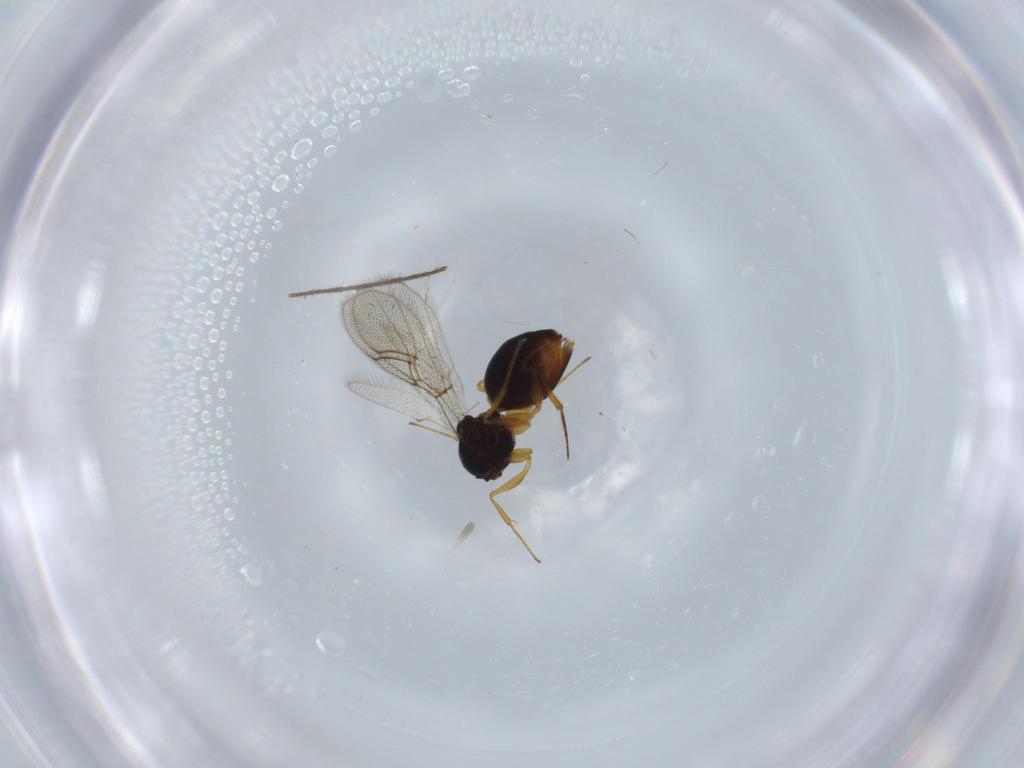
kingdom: Animalia
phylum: Arthropoda
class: Insecta
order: Hymenoptera
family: Figitidae
